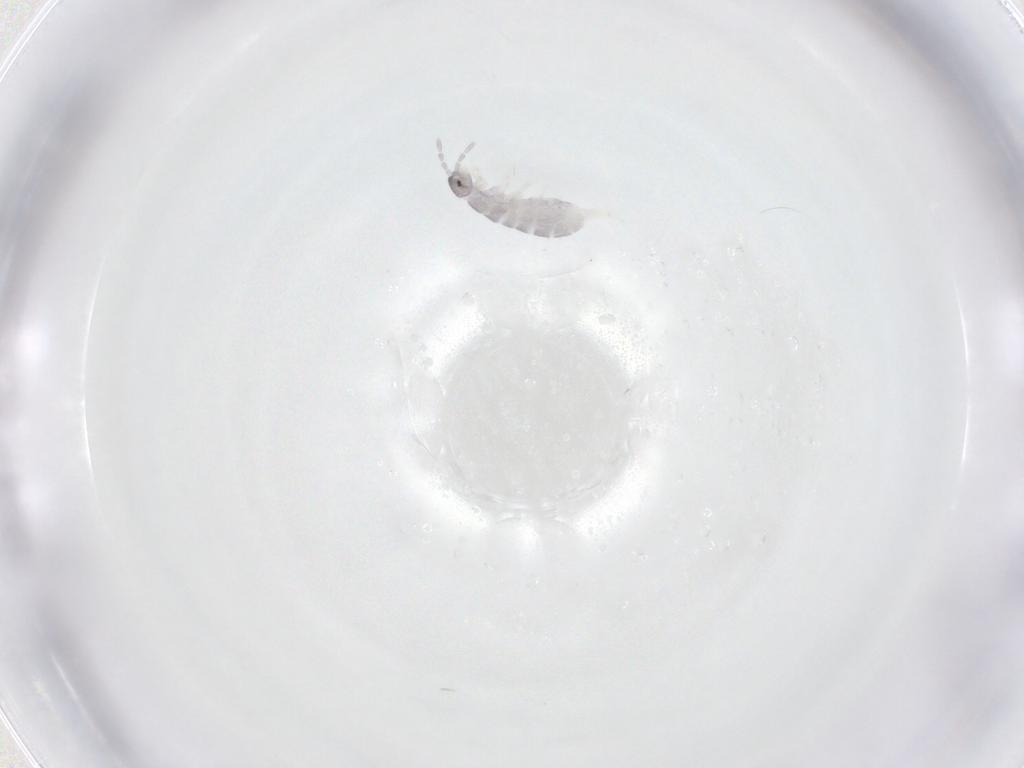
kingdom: Animalia
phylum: Arthropoda
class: Collembola
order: Entomobryomorpha
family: Isotomidae
